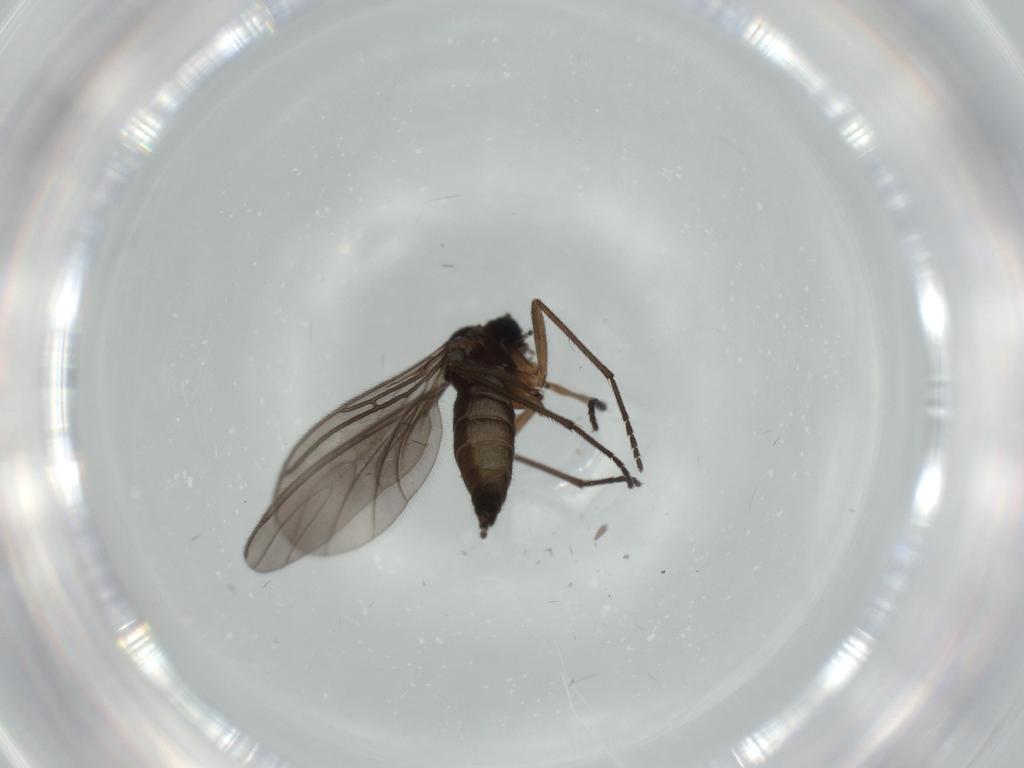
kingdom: Animalia
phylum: Arthropoda
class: Insecta
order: Diptera
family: Sciaridae
